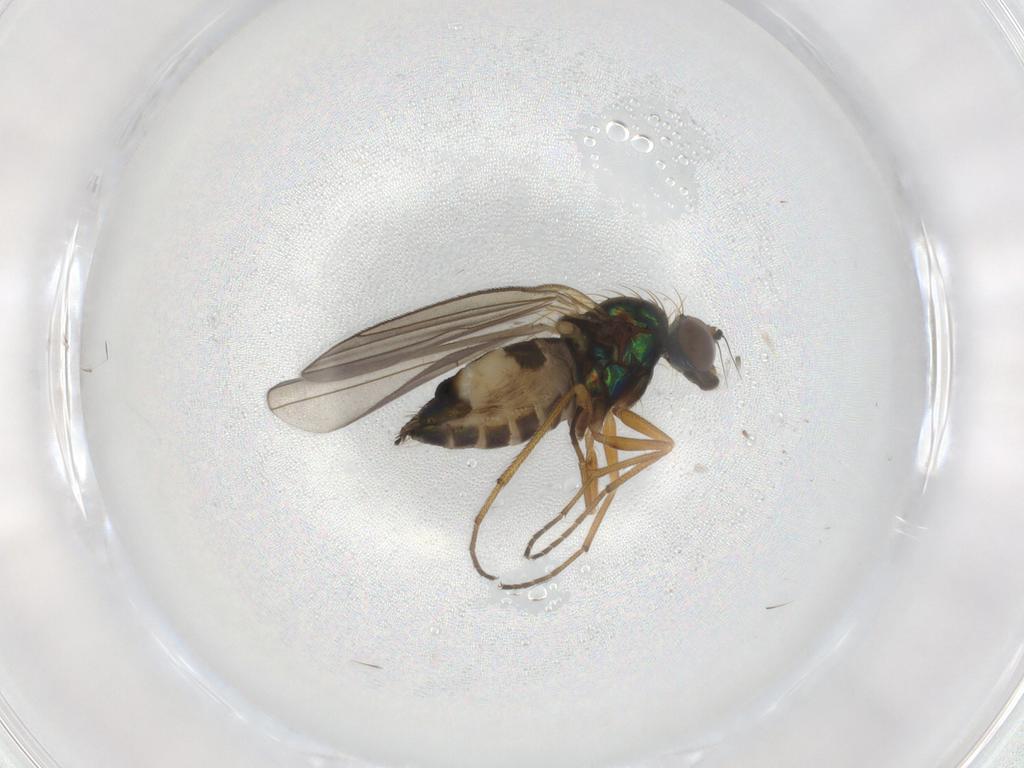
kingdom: Animalia
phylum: Arthropoda
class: Insecta
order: Diptera
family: Dolichopodidae
